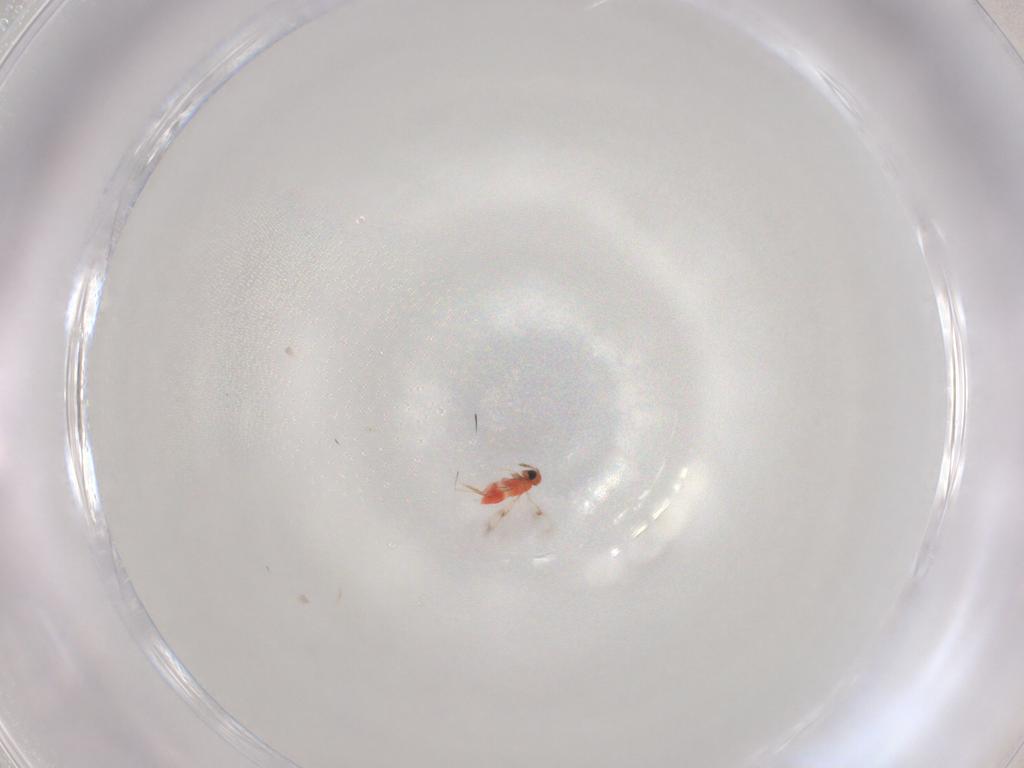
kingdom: Animalia
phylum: Arthropoda
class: Insecta
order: Hymenoptera
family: Trichogrammatidae
